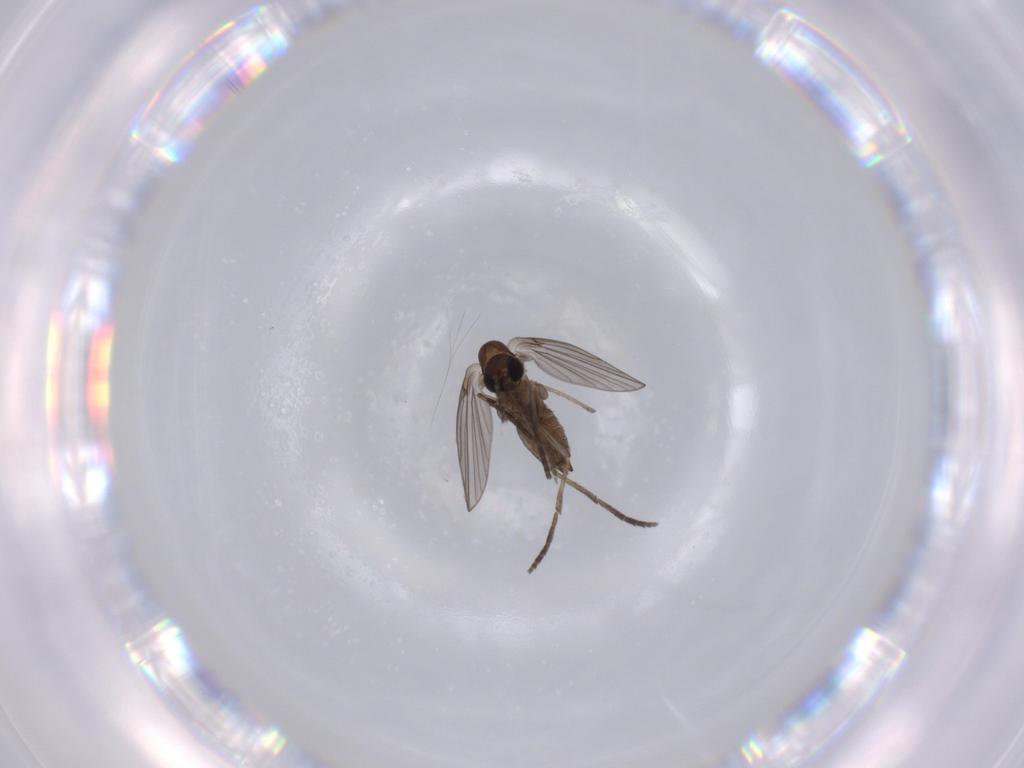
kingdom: Animalia
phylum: Arthropoda
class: Insecta
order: Diptera
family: Psychodidae
